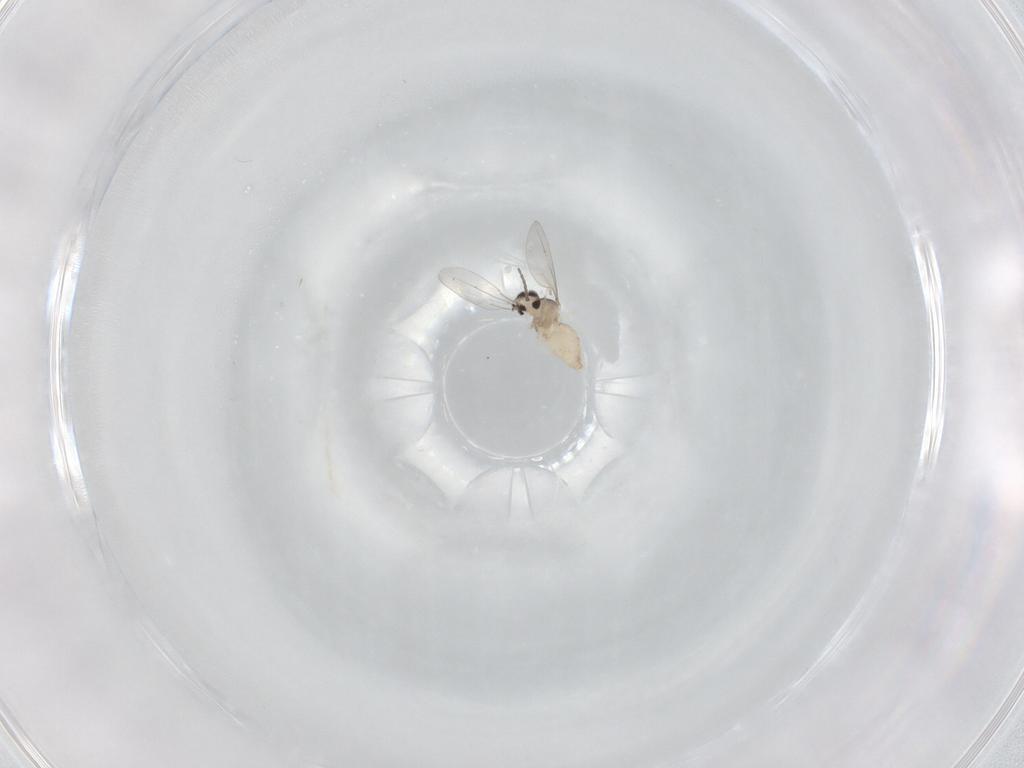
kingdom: Animalia
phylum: Arthropoda
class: Insecta
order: Diptera
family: Cecidomyiidae
